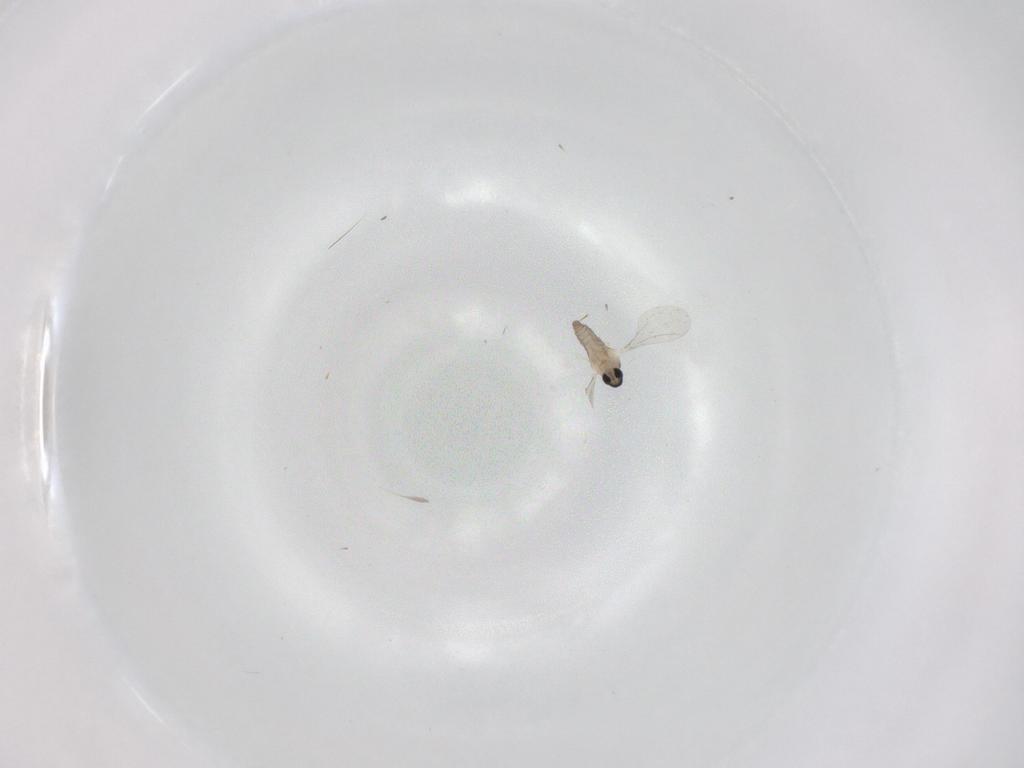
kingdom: Animalia
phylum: Arthropoda
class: Insecta
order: Diptera
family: Cecidomyiidae
